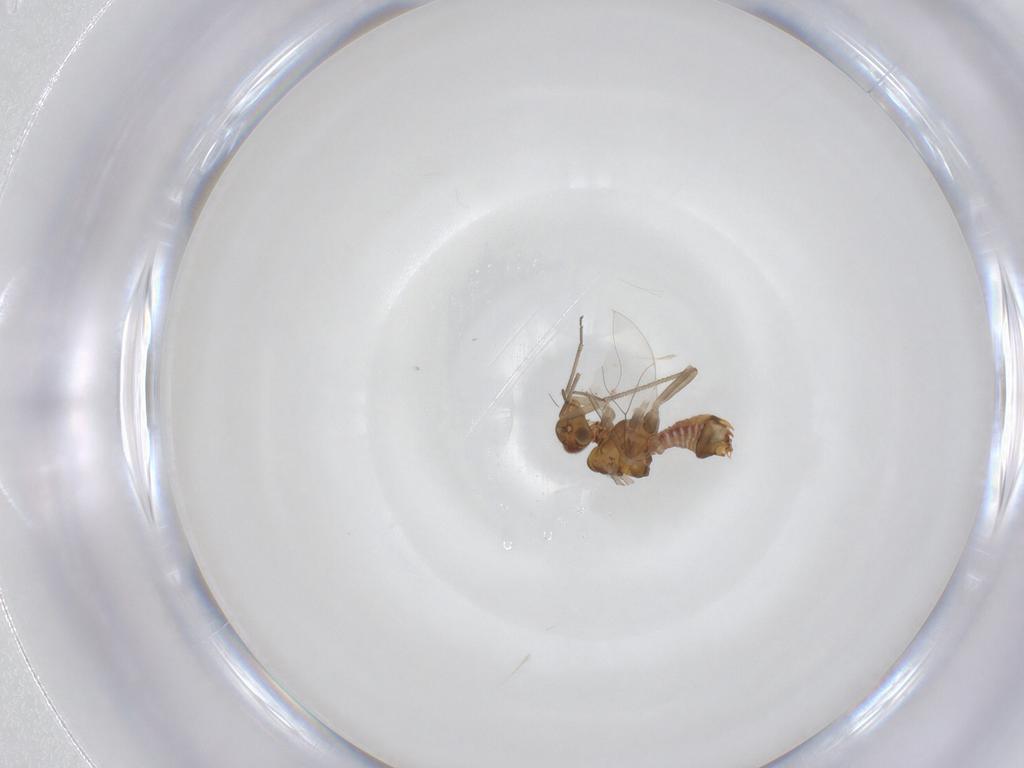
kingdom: Animalia
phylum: Arthropoda
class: Insecta
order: Psocodea
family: Lachesillidae
